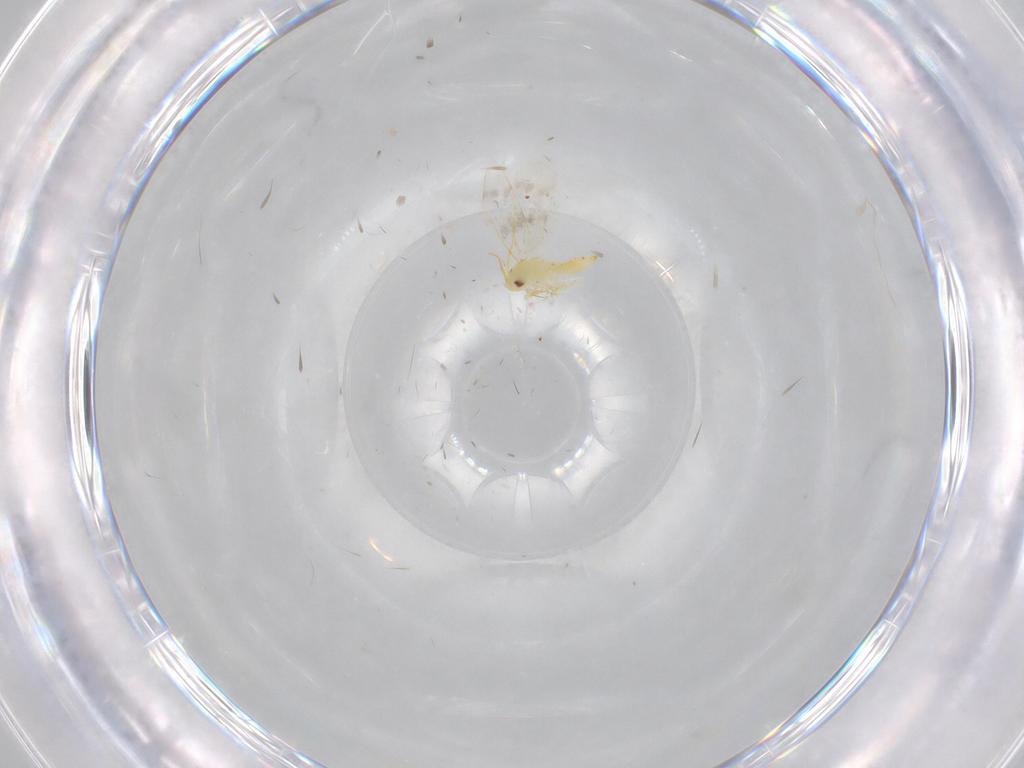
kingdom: Animalia
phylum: Arthropoda
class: Insecta
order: Hemiptera
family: Aleyrodidae
